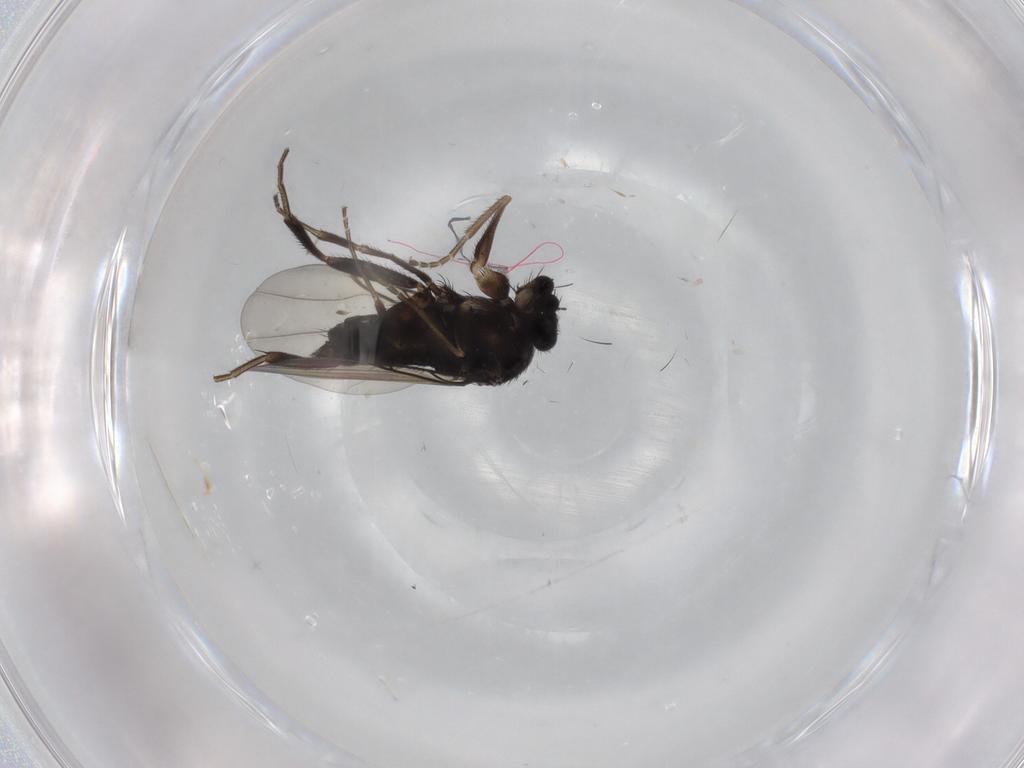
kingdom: Animalia
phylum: Arthropoda
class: Insecta
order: Diptera
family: Phoridae
